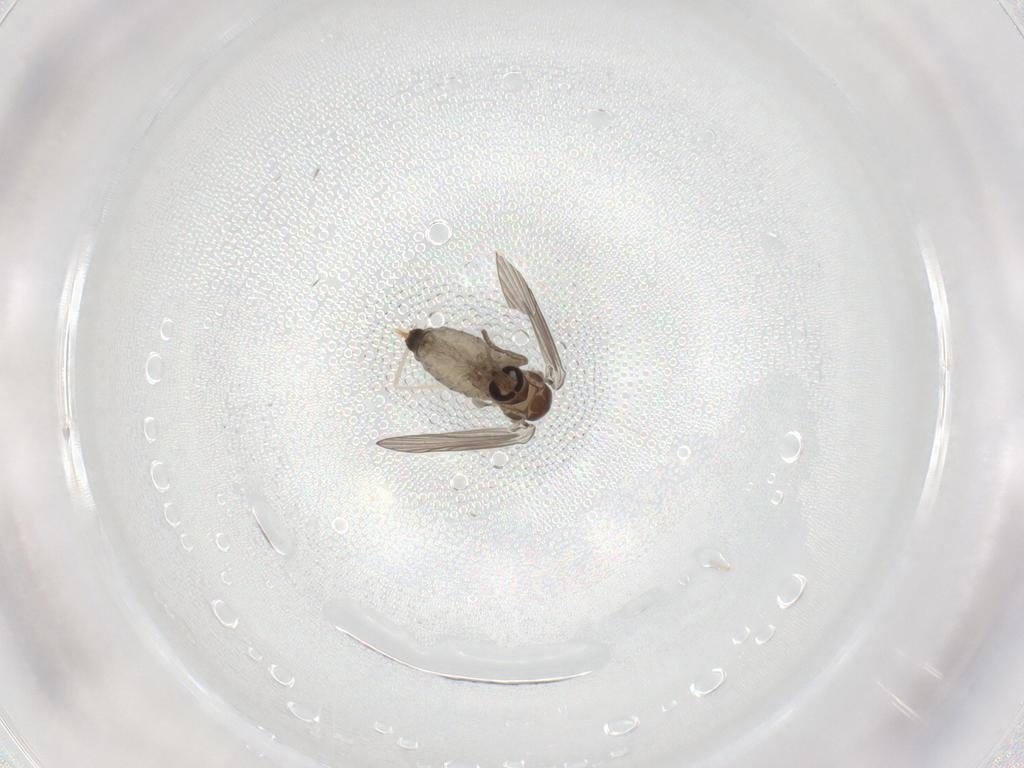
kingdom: Animalia
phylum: Arthropoda
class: Insecta
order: Diptera
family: Psychodidae
